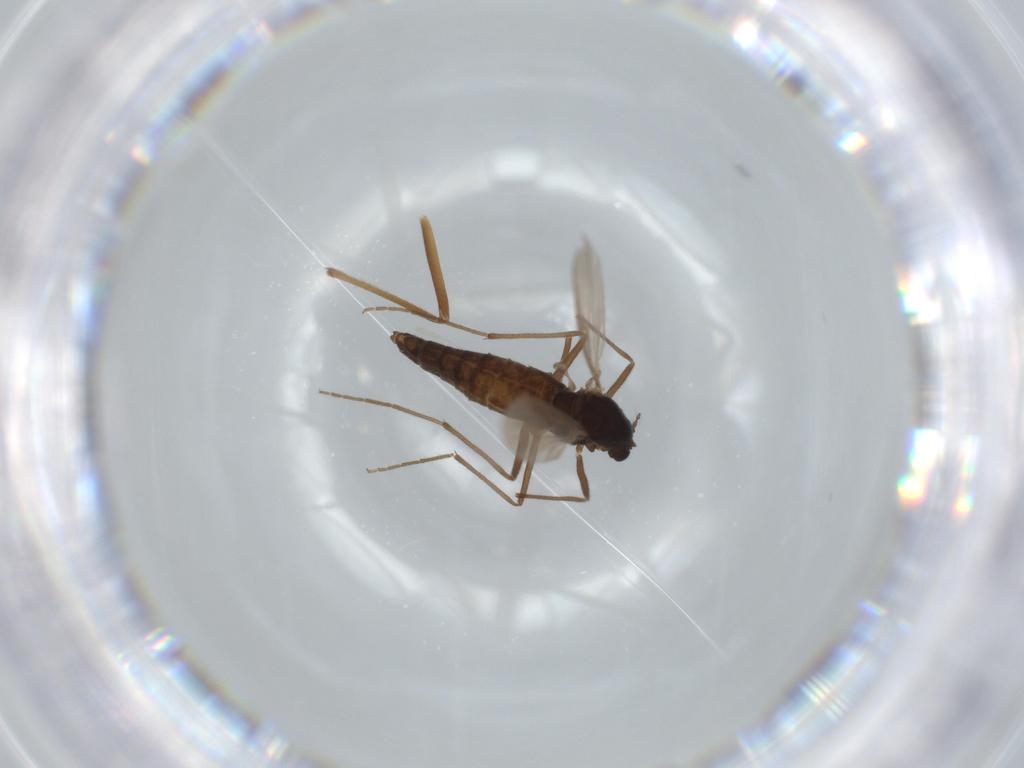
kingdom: Animalia
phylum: Arthropoda
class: Insecta
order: Diptera
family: Chironomidae
